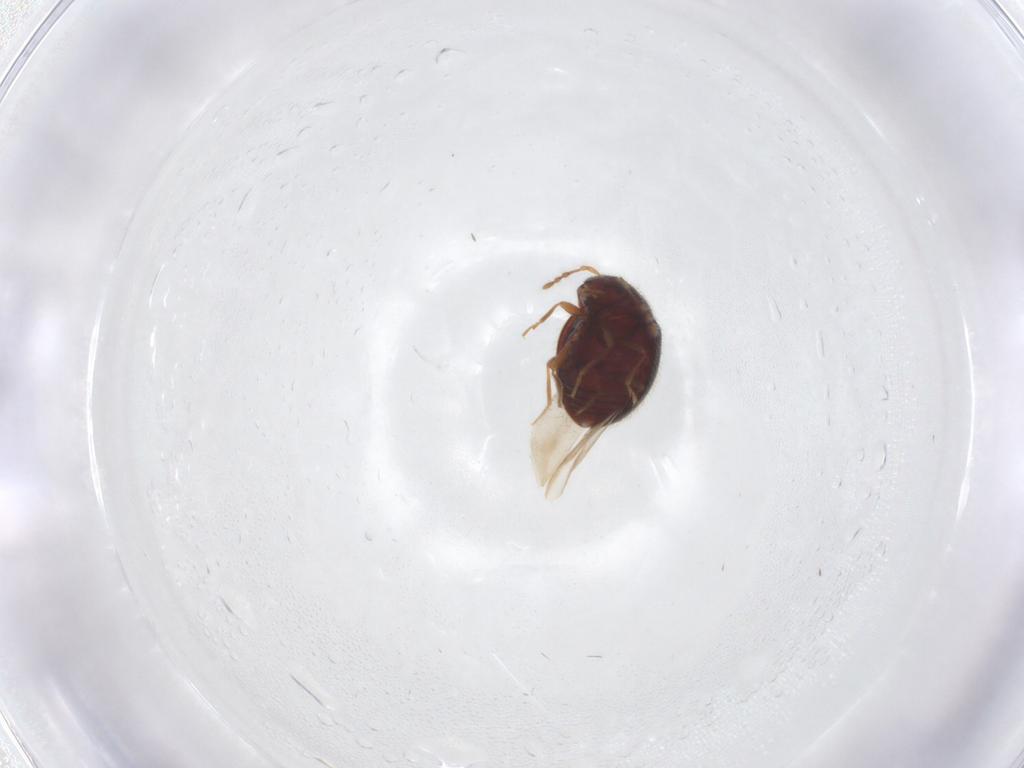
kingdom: Animalia
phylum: Arthropoda
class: Insecta
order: Coleoptera
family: Anamorphidae
